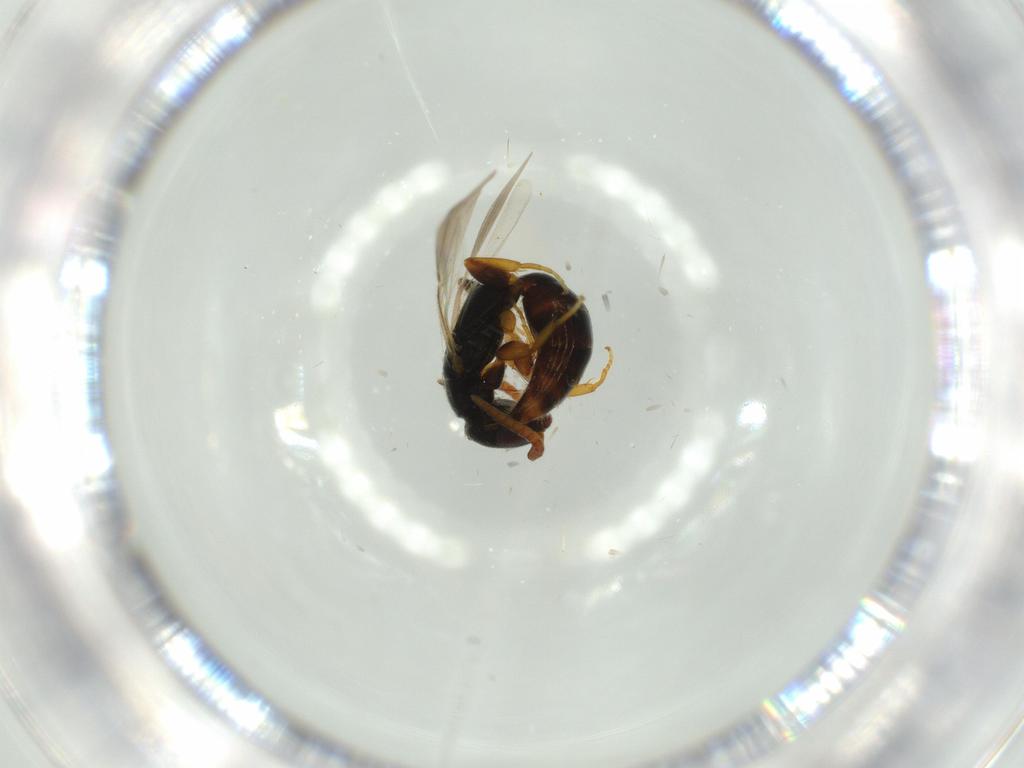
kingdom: Animalia
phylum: Arthropoda
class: Insecta
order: Hymenoptera
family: Bethylidae
